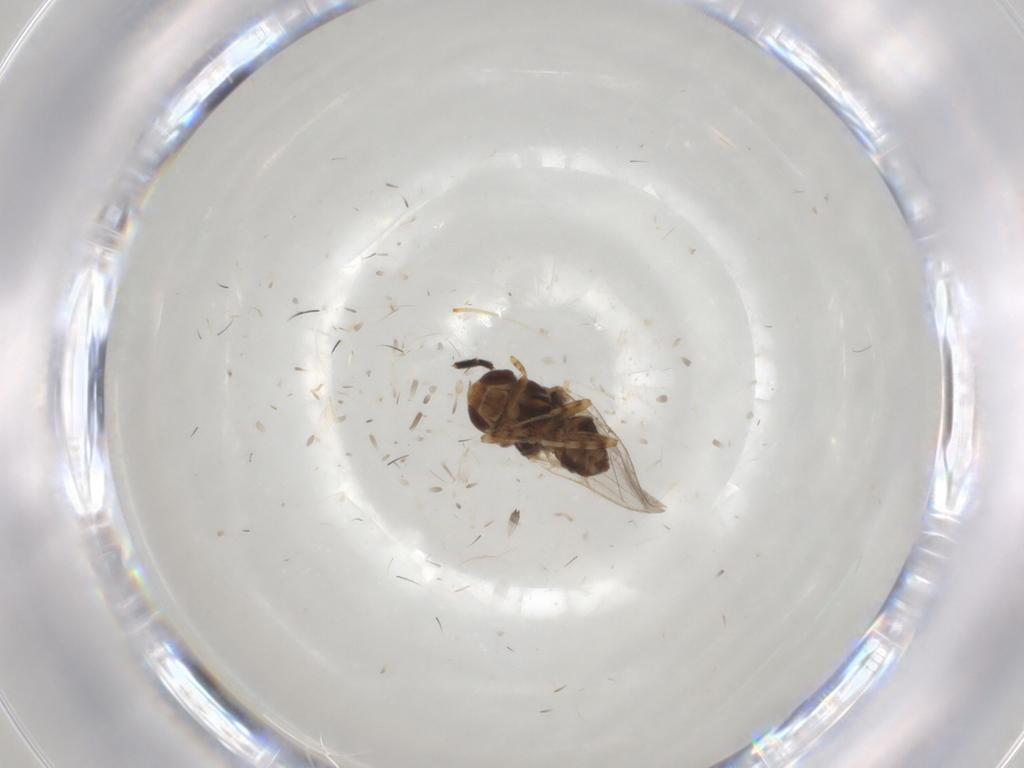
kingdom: Animalia
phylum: Arthropoda
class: Insecta
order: Diptera
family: Chloropidae
